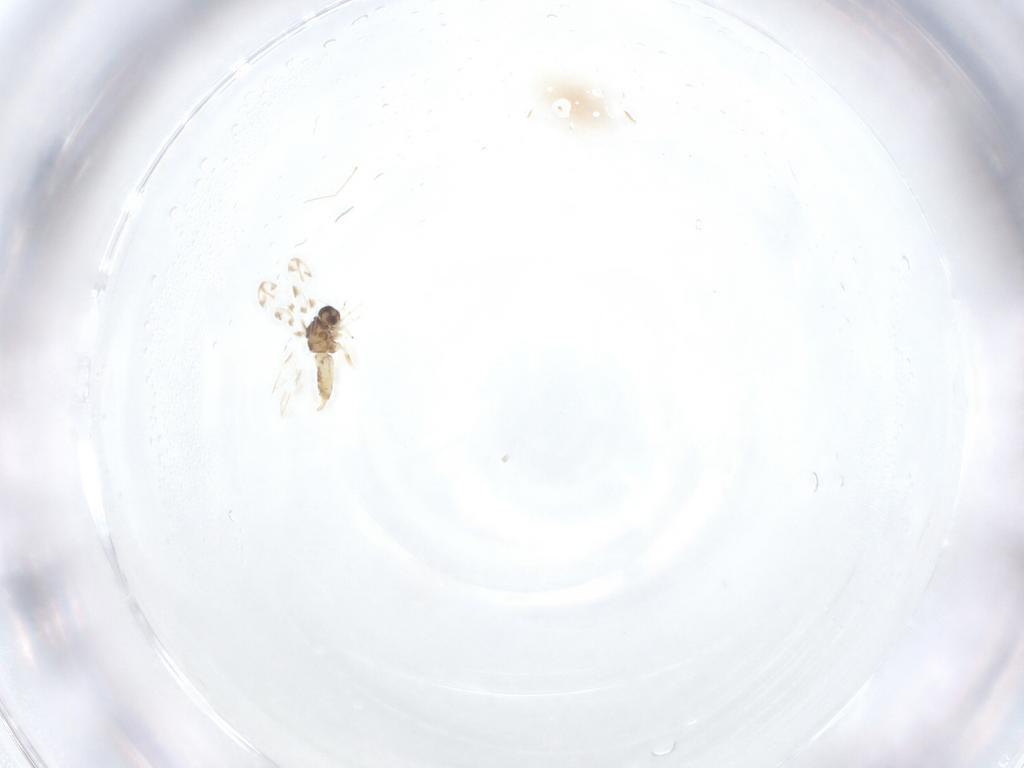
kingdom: Animalia
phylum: Arthropoda
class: Insecta
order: Hemiptera
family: Aleyrodidae
